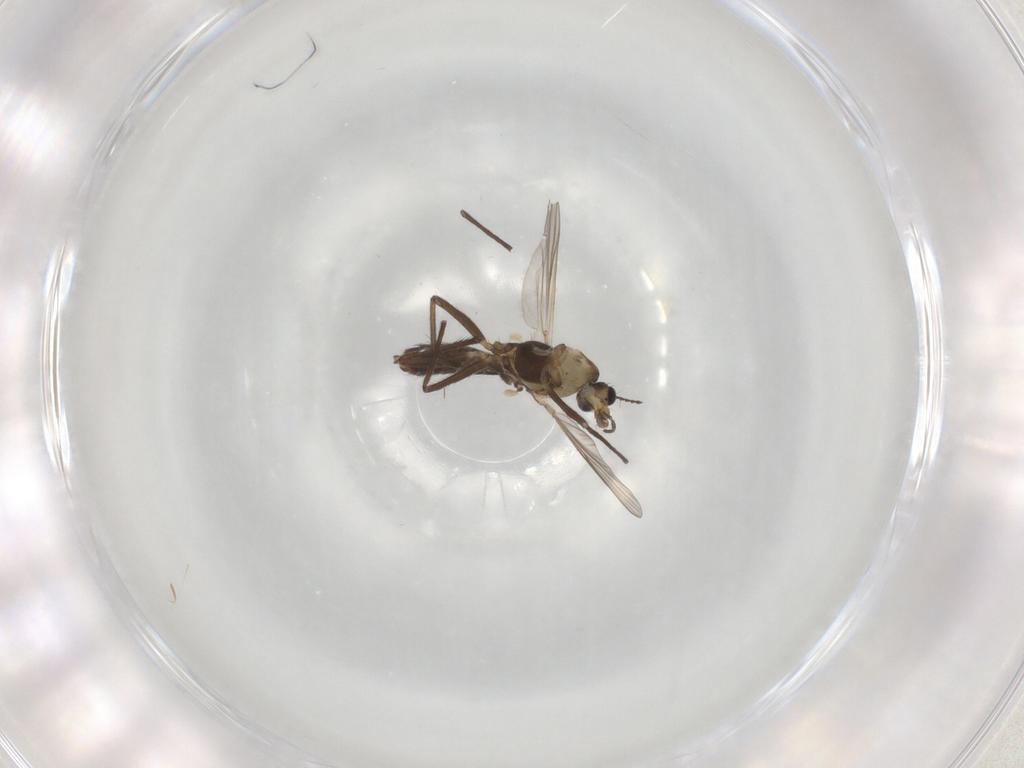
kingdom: Animalia
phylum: Arthropoda
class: Insecta
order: Diptera
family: Chironomidae
